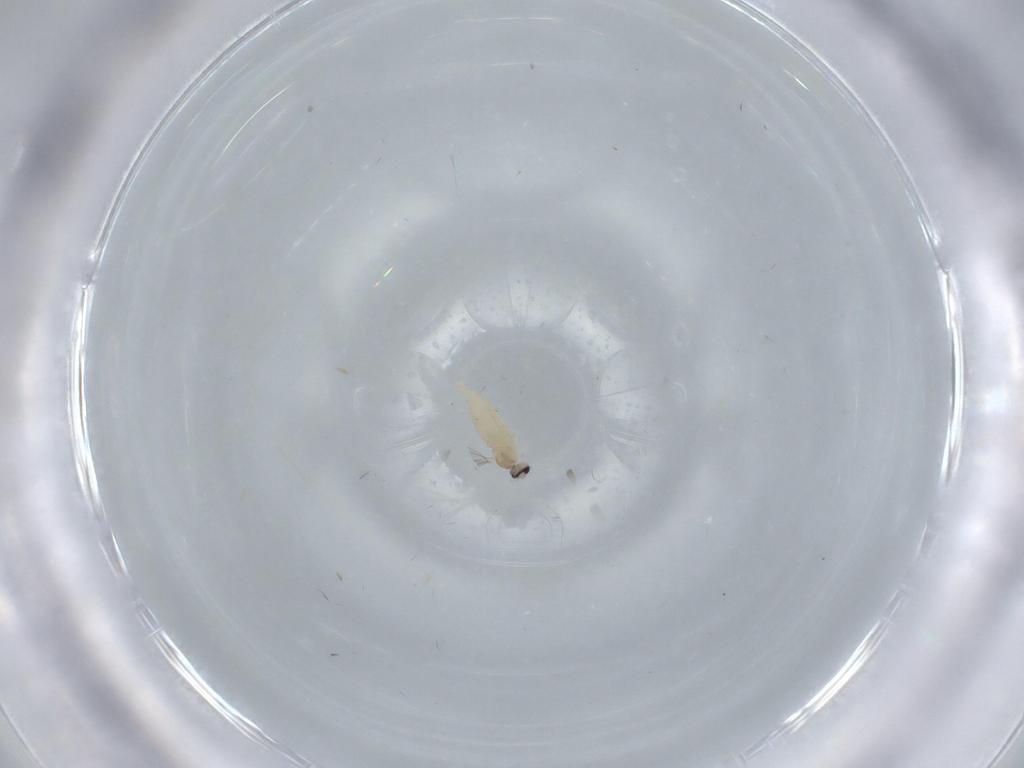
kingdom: Animalia
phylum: Arthropoda
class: Insecta
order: Diptera
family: Cecidomyiidae
